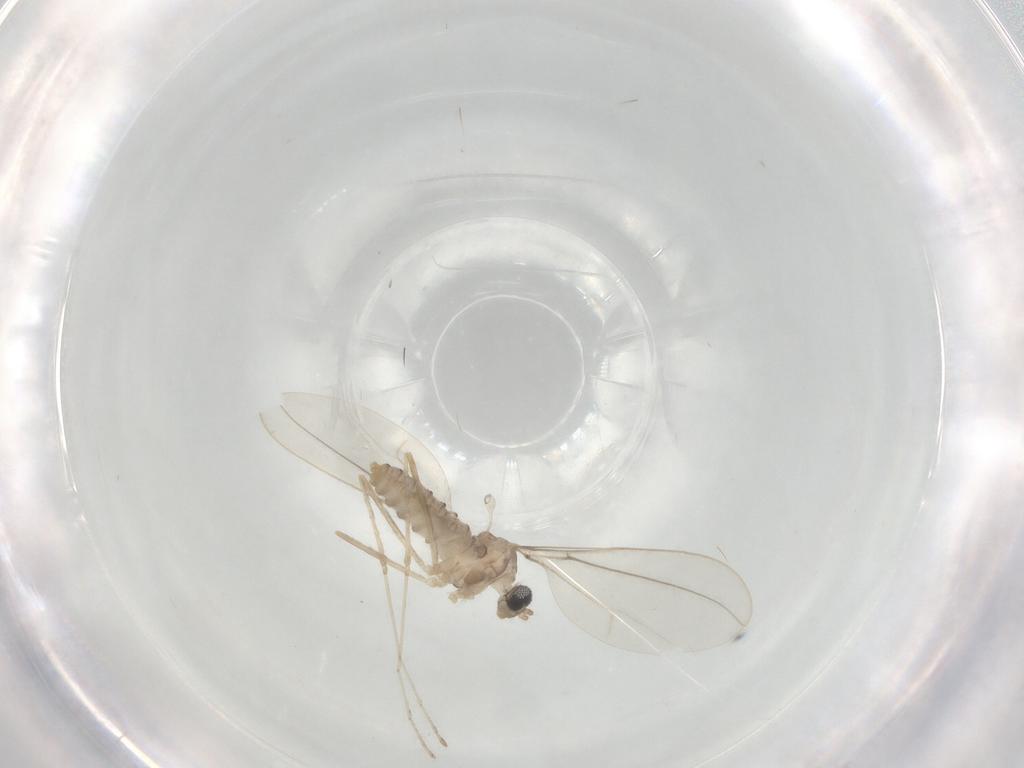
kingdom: Animalia
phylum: Arthropoda
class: Insecta
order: Diptera
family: Cecidomyiidae
